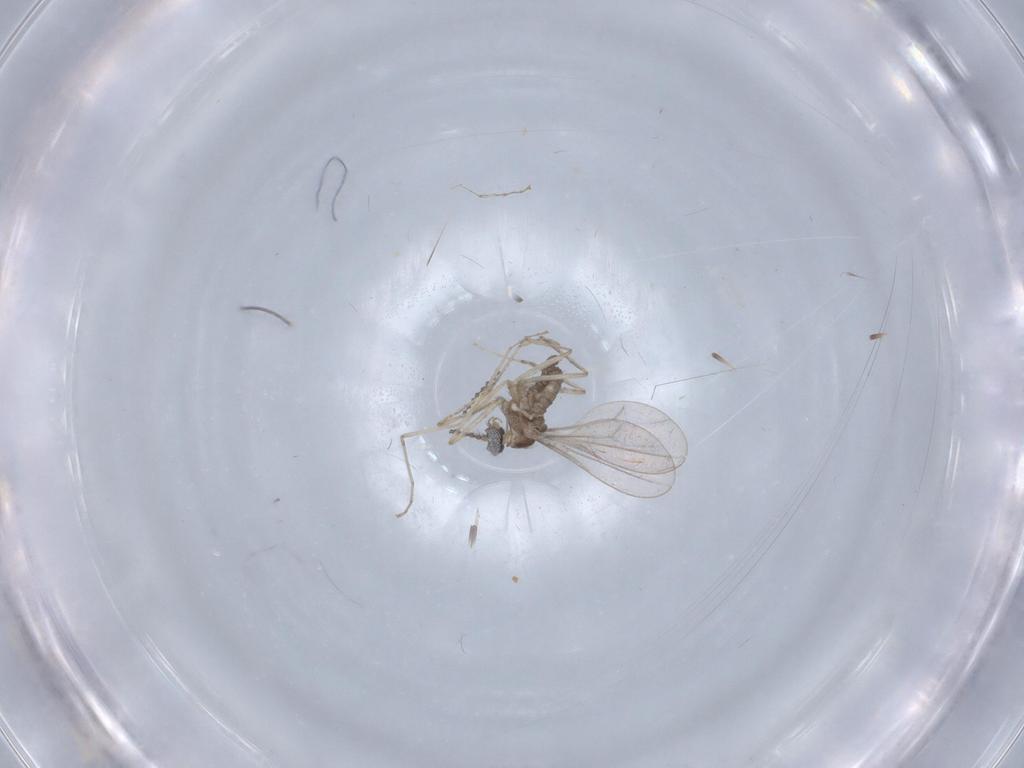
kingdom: Animalia
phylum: Arthropoda
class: Insecta
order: Diptera
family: Cecidomyiidae
